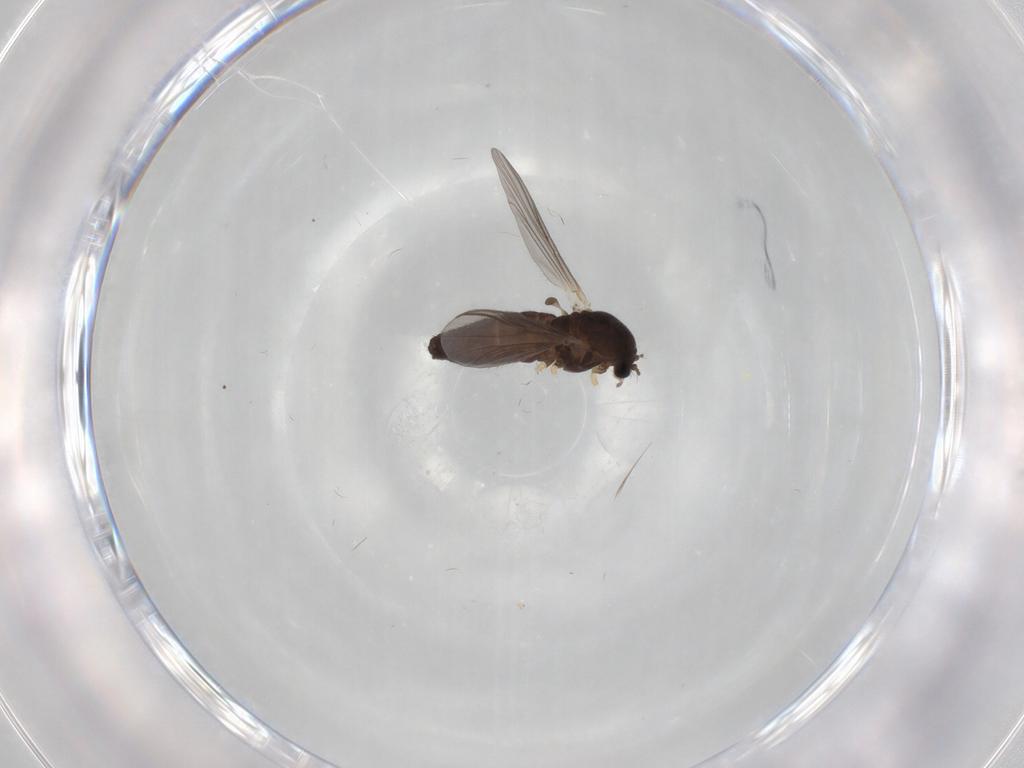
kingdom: Animalia
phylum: Arthropoda
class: Insecta
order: Diptera
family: Chironomidae
